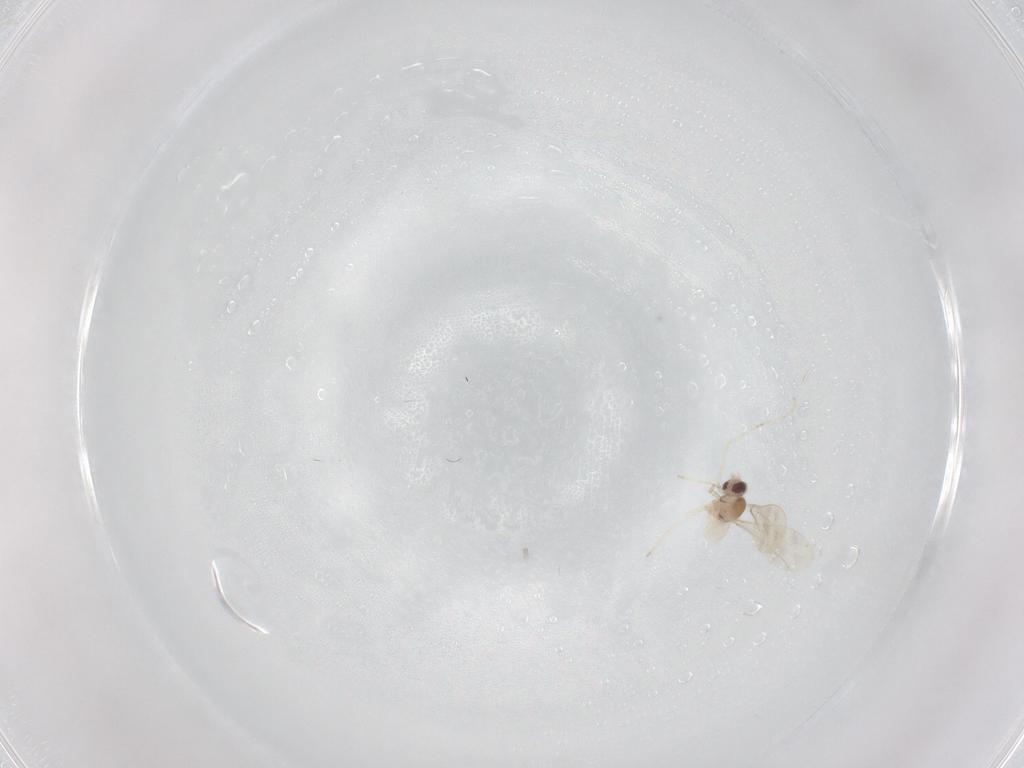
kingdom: Animalia
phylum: Arthropoda
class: Insecta
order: Diptera
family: Cecidomyiidae
